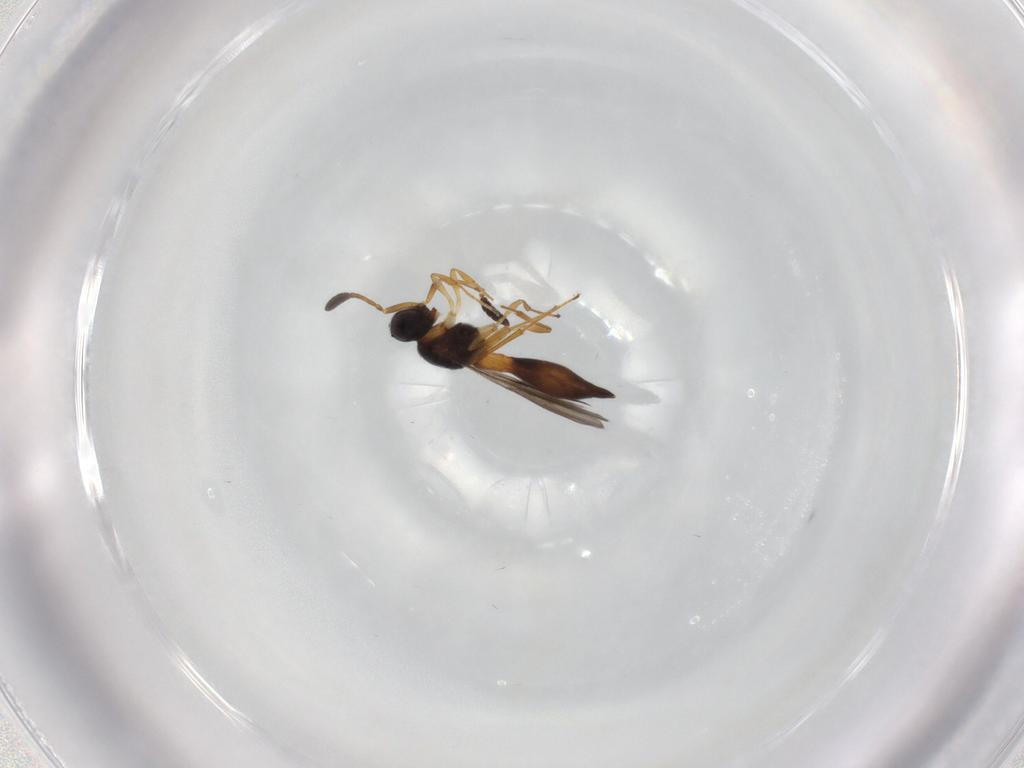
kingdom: Animalia
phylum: Arthropoda
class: Insecta
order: Hymenoptera
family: Scelionidae
